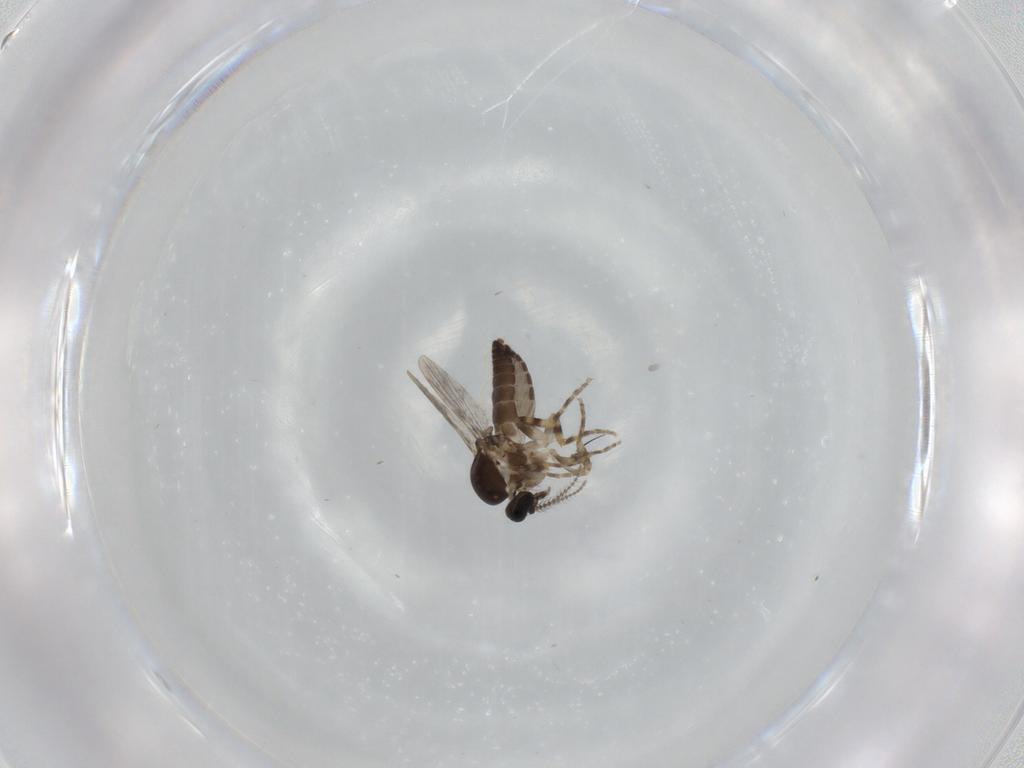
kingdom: Animalia
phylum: Arthropoda
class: Insecta
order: Diptera
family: Ceratopogonidae
